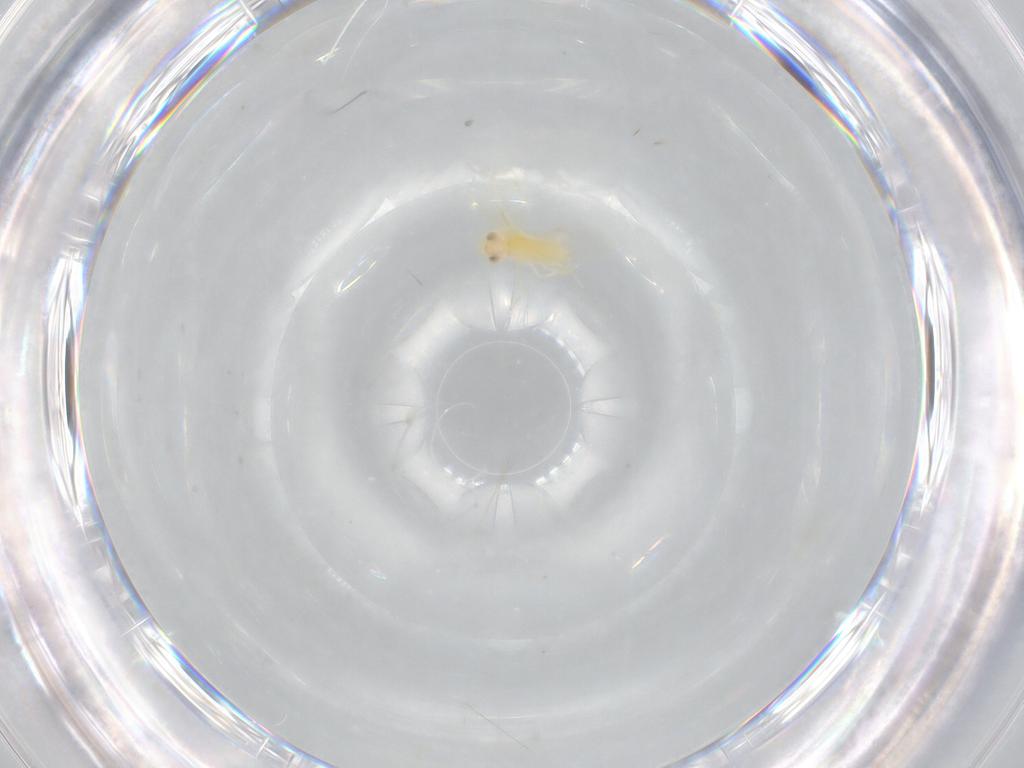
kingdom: Animalia
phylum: Arthropoda
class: Insecta
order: Hymenoptera
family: Aphelinidae
